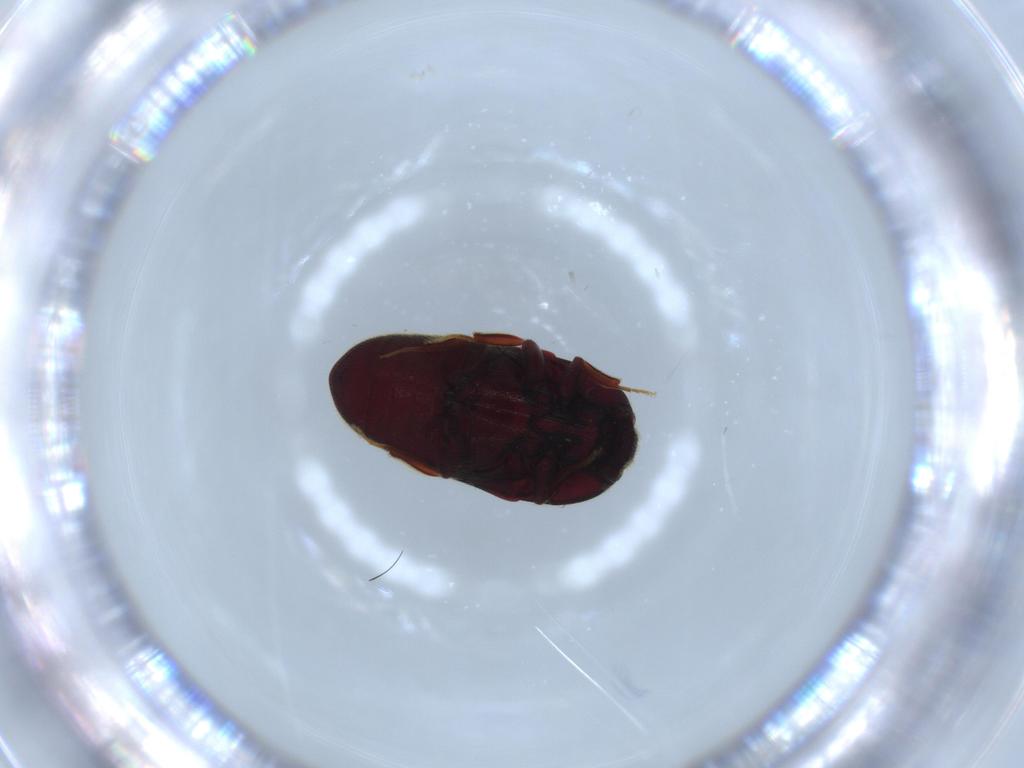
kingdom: Animalia
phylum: Arthropoda
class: Insecta
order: Coleoptera
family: Throscidae
